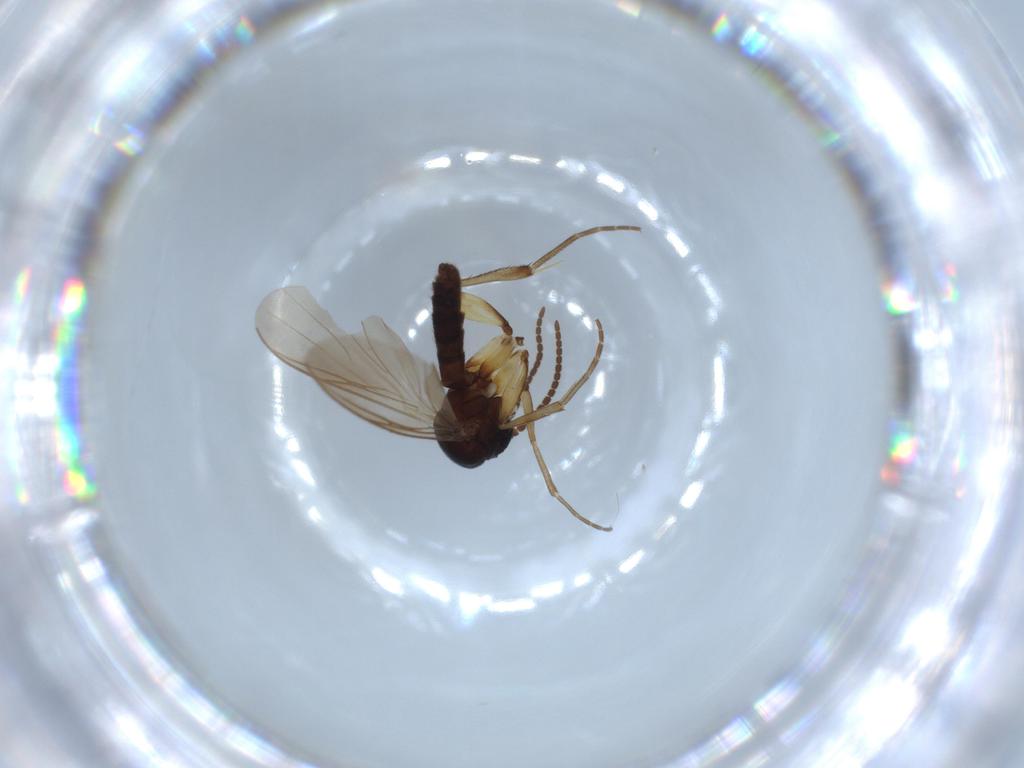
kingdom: Animalia
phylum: Arthropoda
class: Insecta
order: Diptera
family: Mycetophilidae
